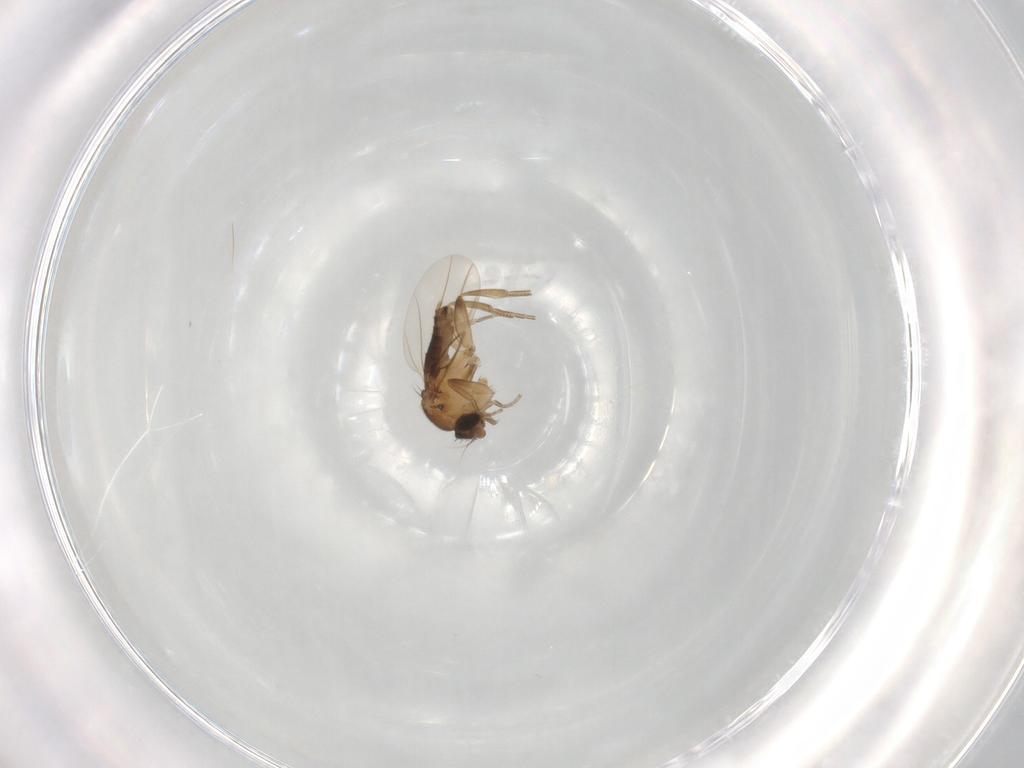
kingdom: Animalia
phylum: Arthropoda
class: Insecta
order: Diptera
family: Phoridae
